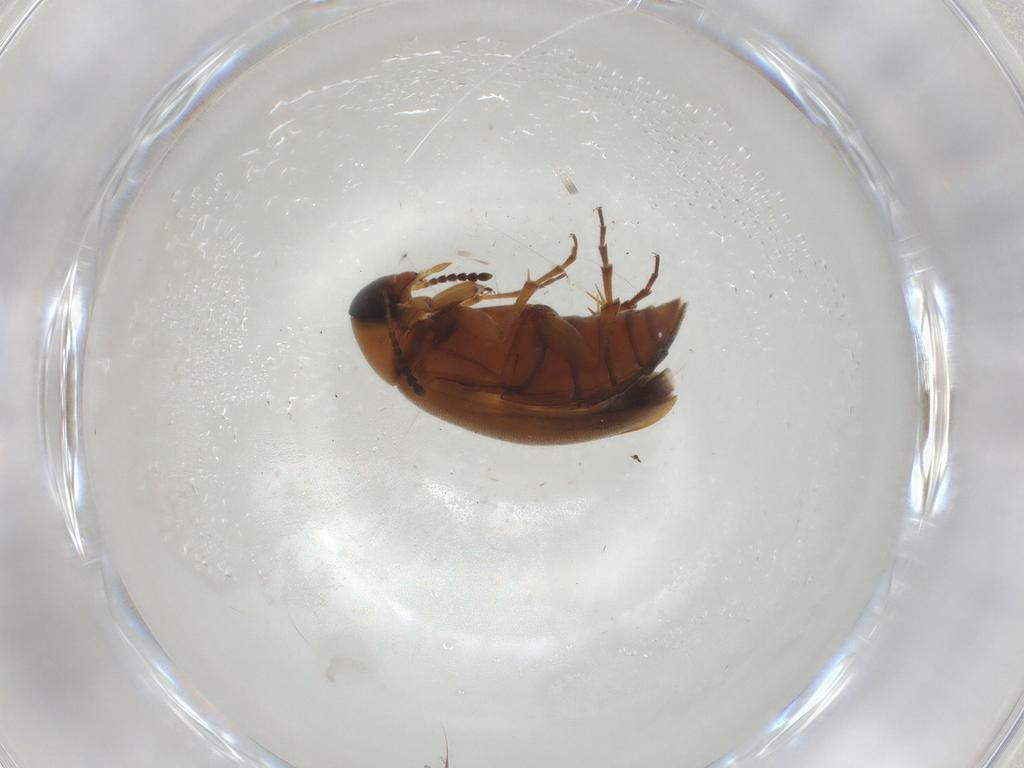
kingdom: Animalia
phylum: Arthropoda
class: Insecta
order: Coleoptera
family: Scraptiidae
